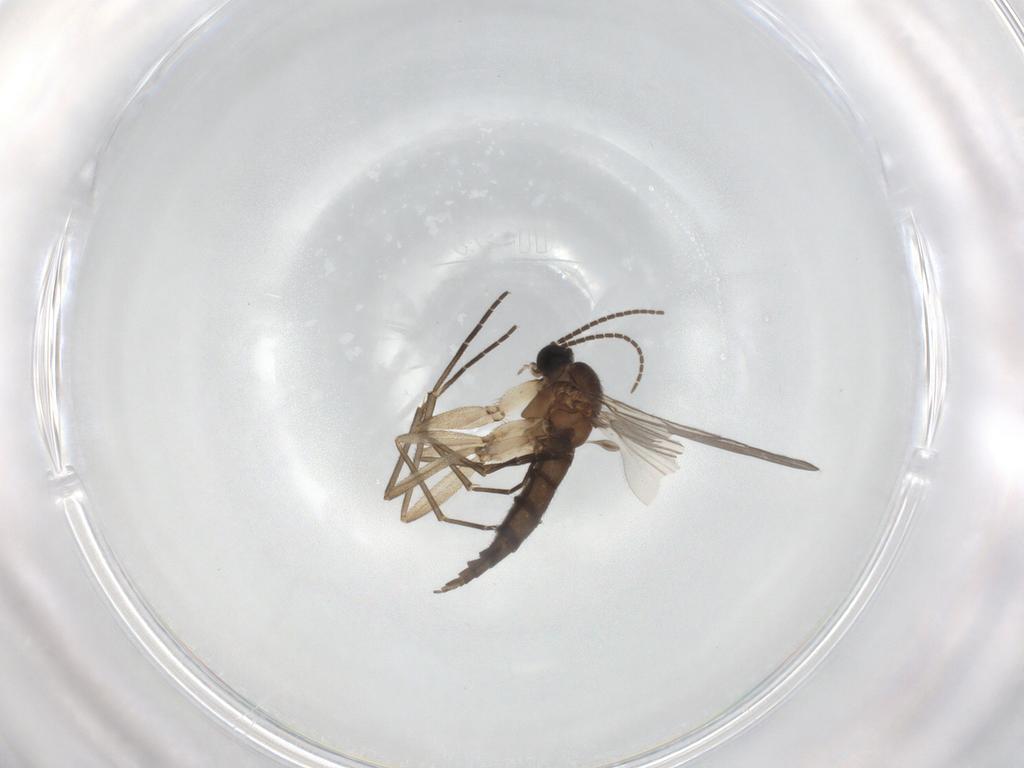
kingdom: Animalia
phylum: Arthropoda
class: Insecta
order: Diptera
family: Sciaridae
